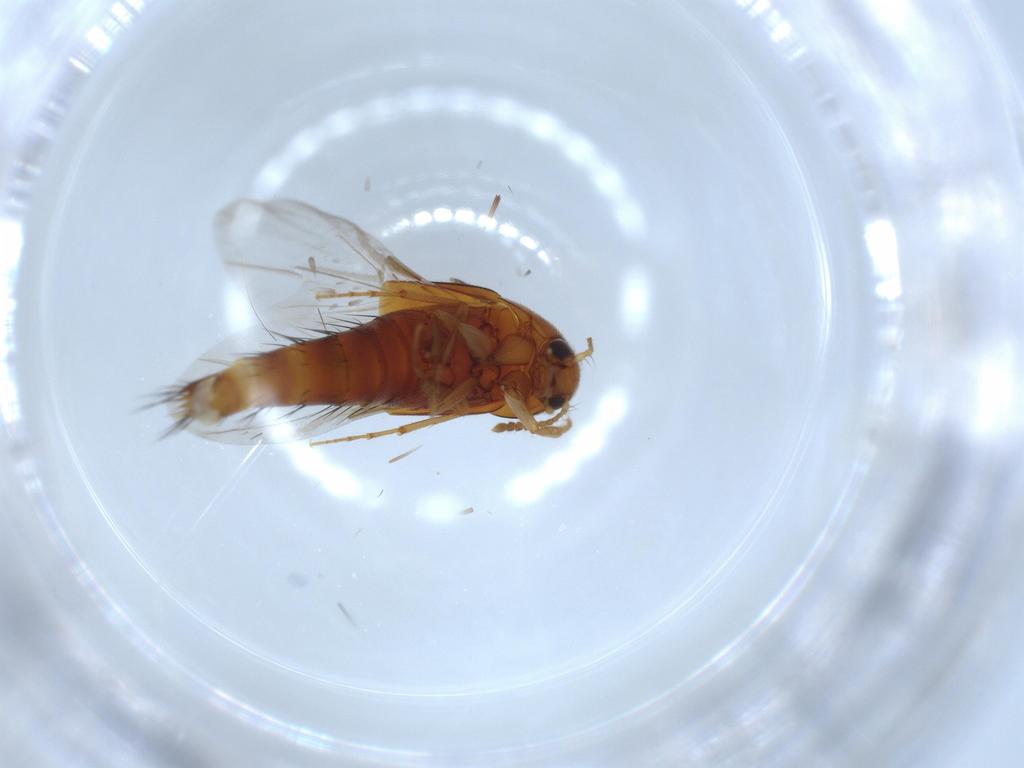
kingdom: Animalia
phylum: Arthropoda
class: Insecta
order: Coleoptera
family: Staphylinidae
